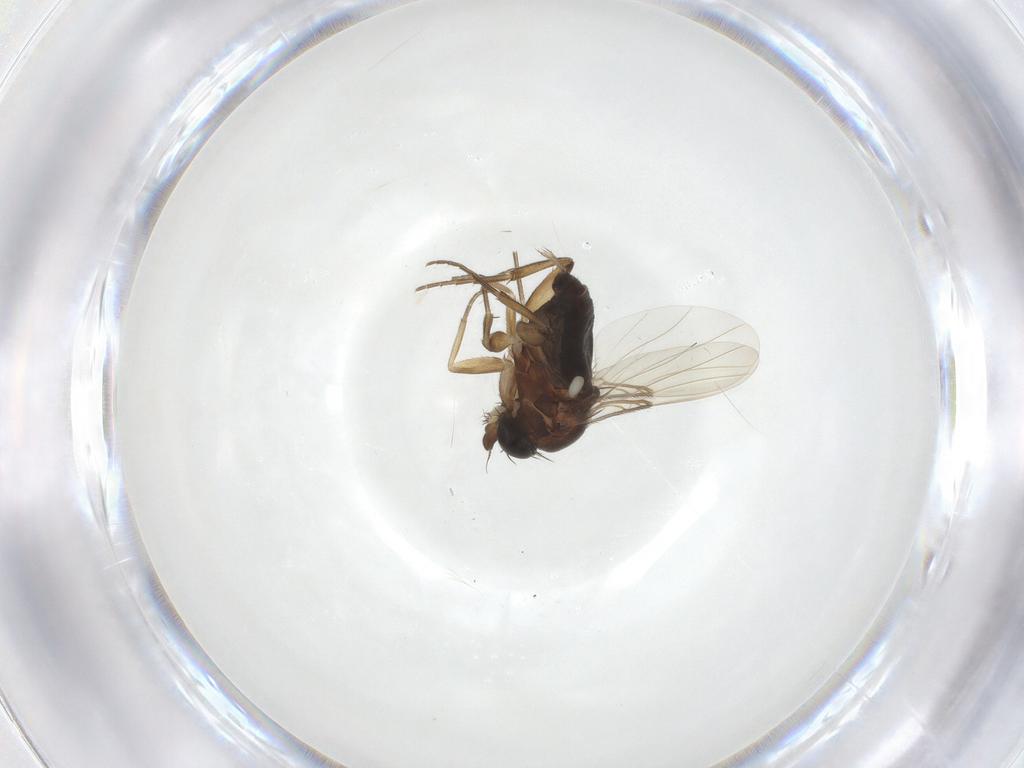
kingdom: Animalia
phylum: Arthropoda
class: Insecta
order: Diptera
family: Phoridae
